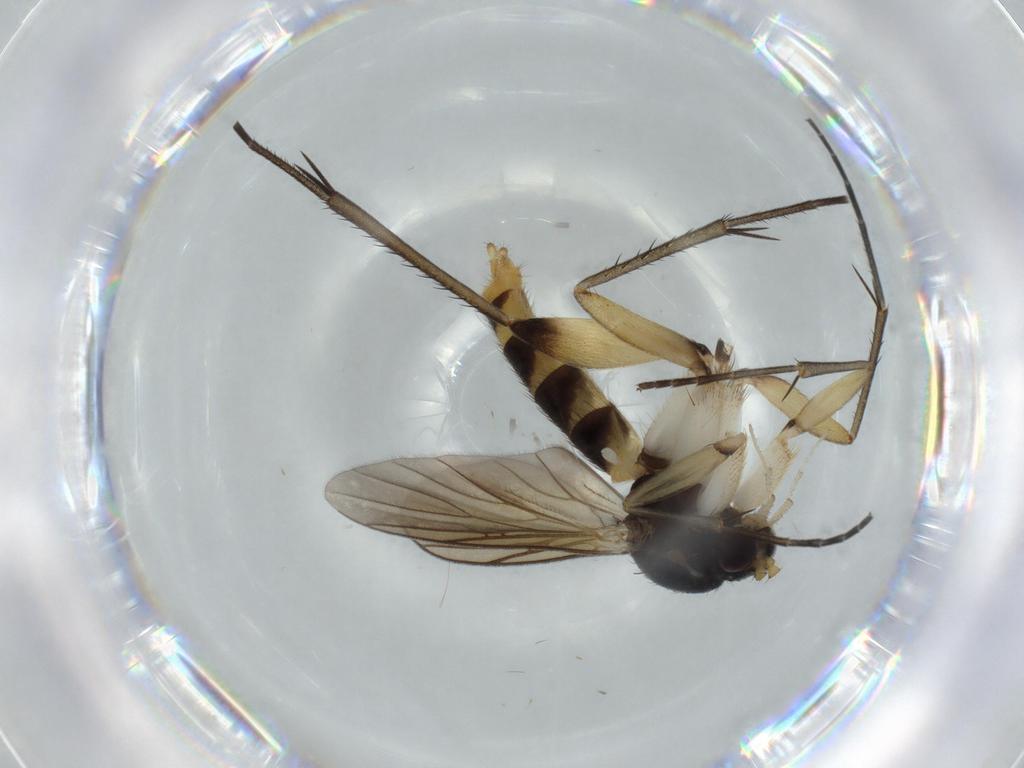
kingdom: Animalia
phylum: Arthropoda
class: Insecta
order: Diptera
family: Mycetophilidae
